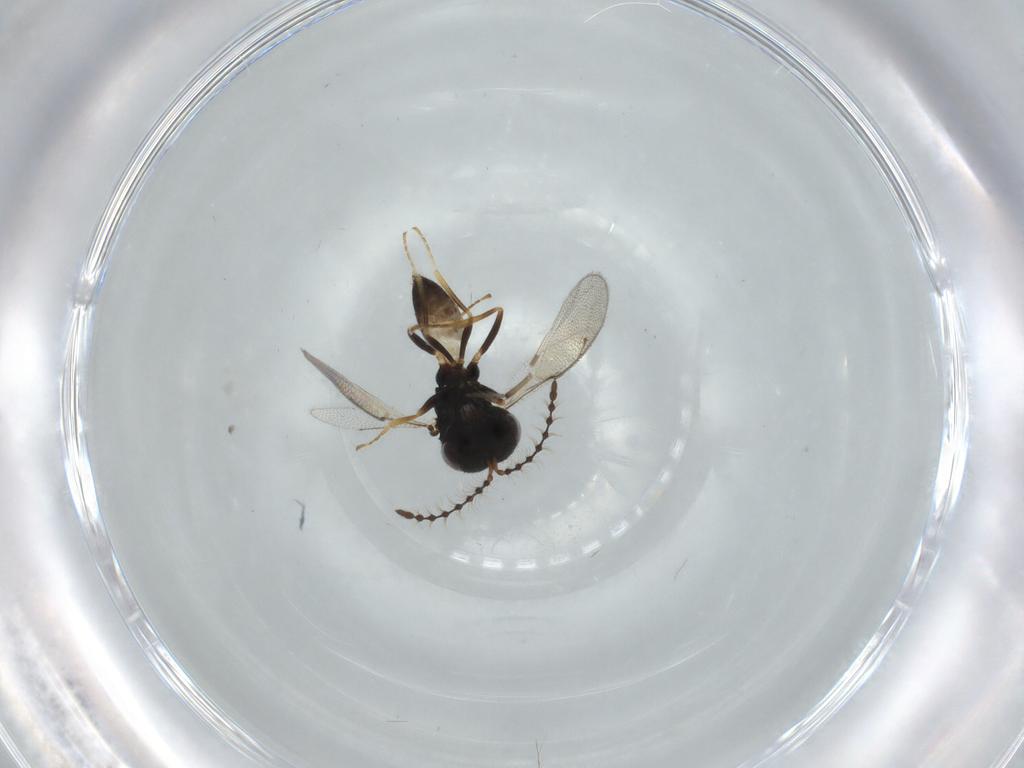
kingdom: Animalia
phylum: Arthropoda
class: Insecta
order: Hymenoptera
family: Scelionidae
